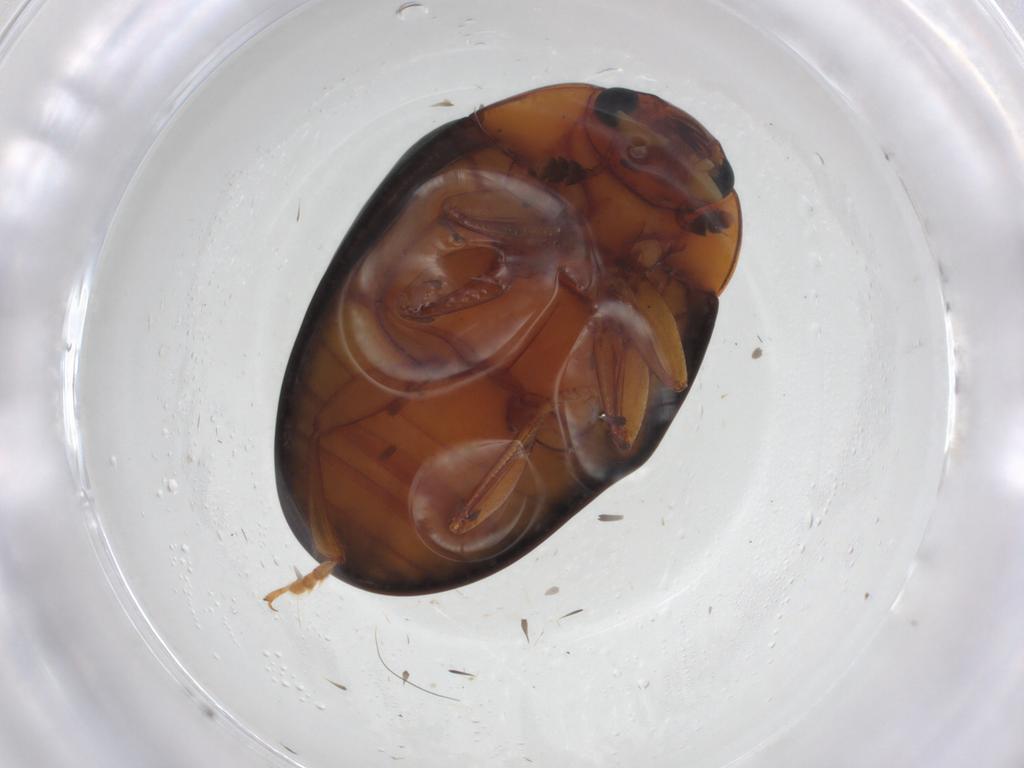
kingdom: Animalia
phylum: Arthropoda
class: Insecta
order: Coleoptera
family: Erotylidae
